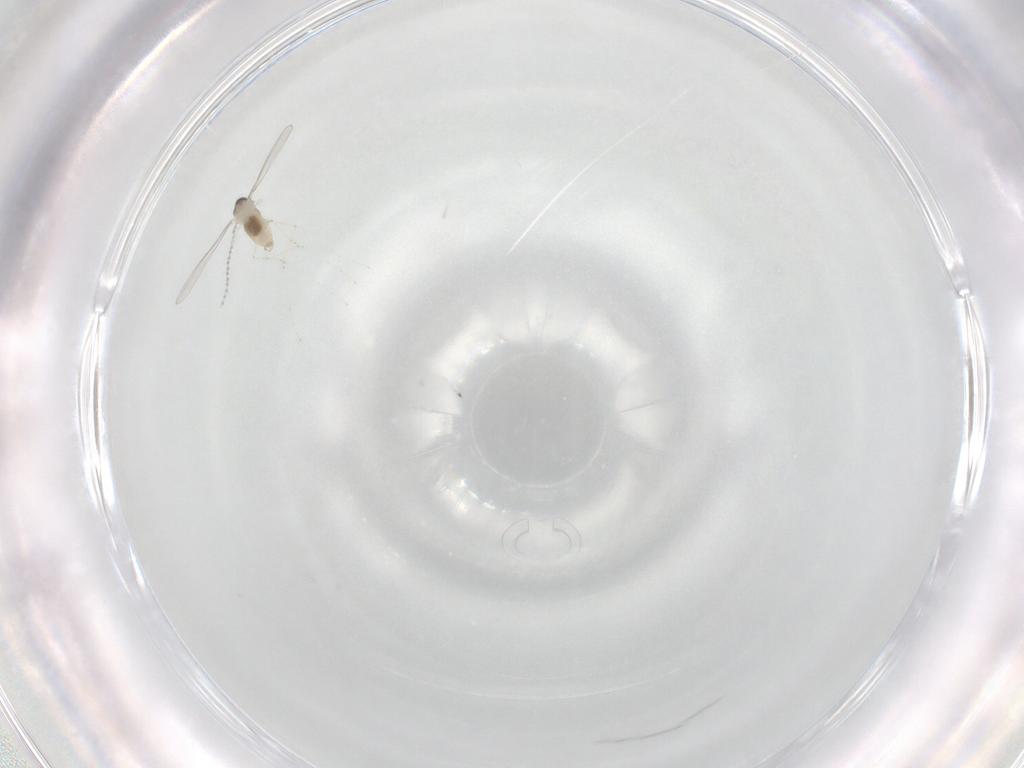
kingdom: Animalia
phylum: Arthropoda
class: Insecta
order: Diptera
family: Cecidomyiidae
